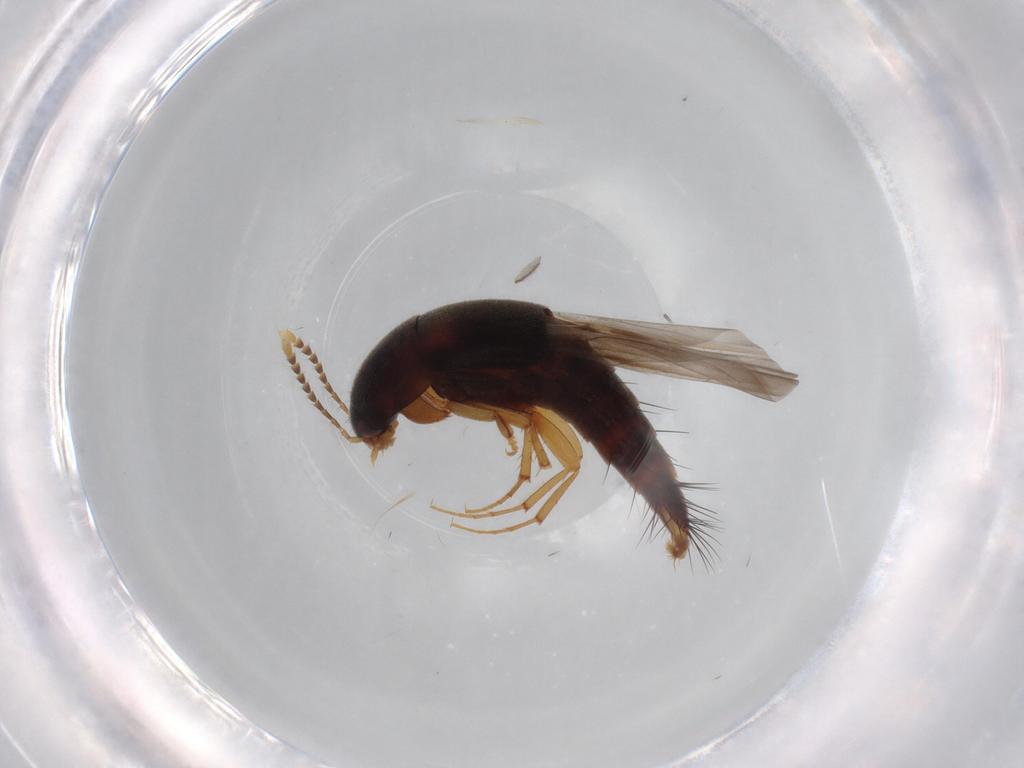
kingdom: Animalia
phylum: Arthropoda
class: Insecta
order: Coleoptera
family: Staphylinidae
